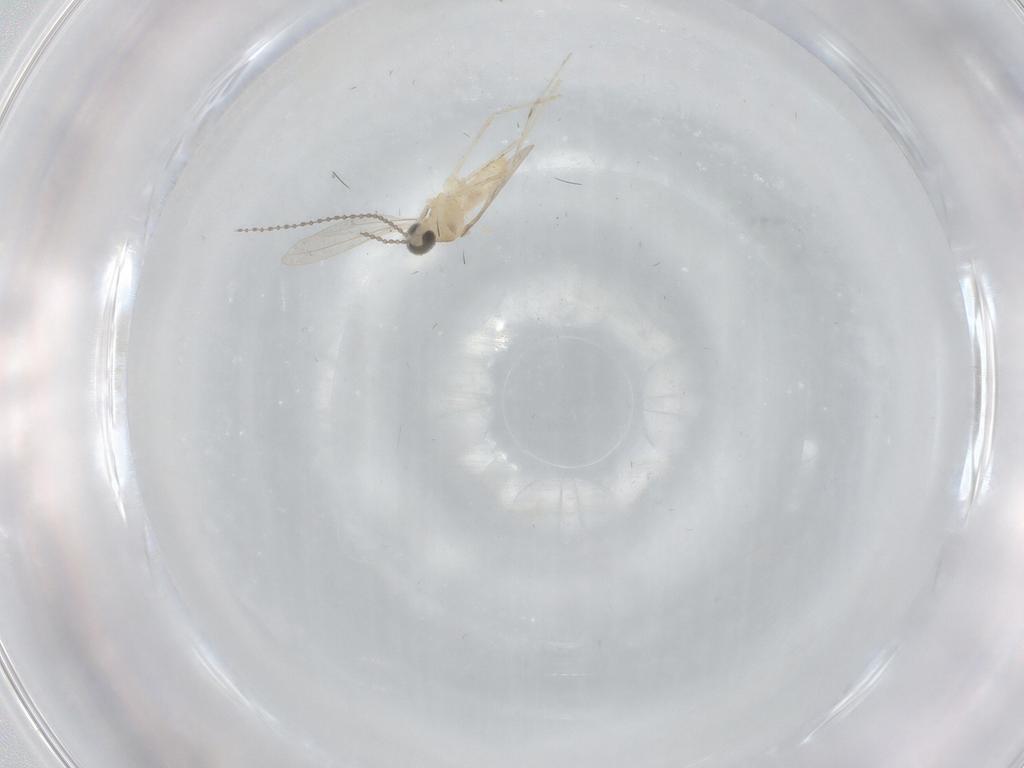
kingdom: Animalia
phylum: Arthropoda
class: Insecta
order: Diptera
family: Cecidomyiidae
